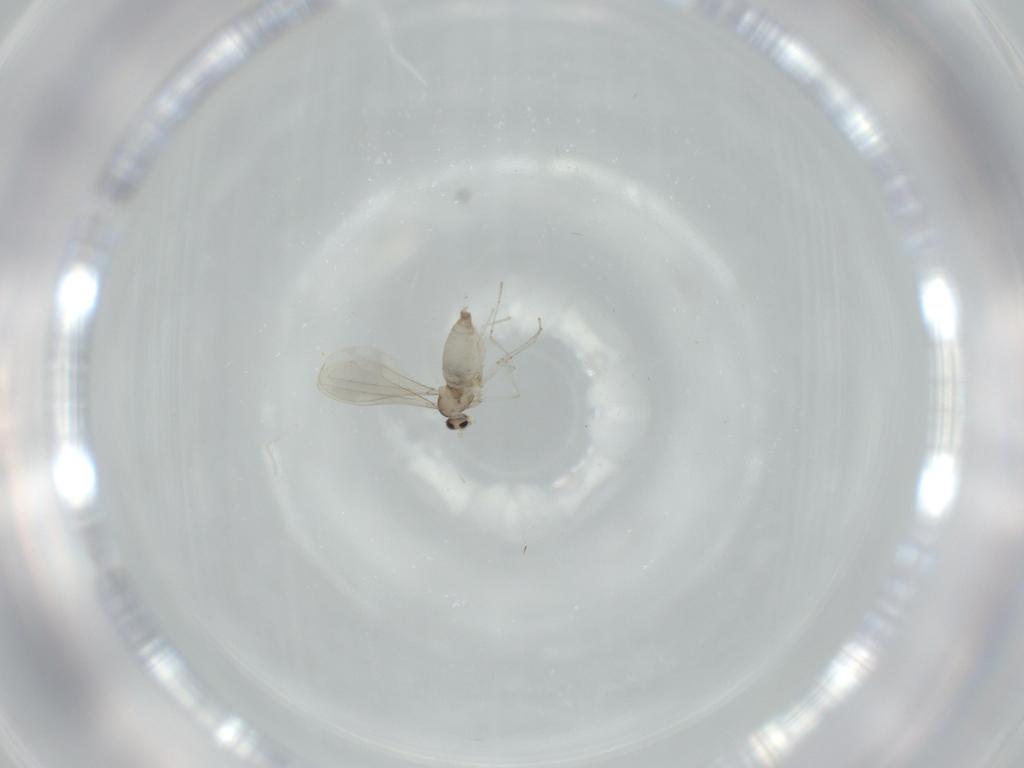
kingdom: Animalia
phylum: Arthropoda
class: Insecta
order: Diptera
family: Cecidomyiidae
